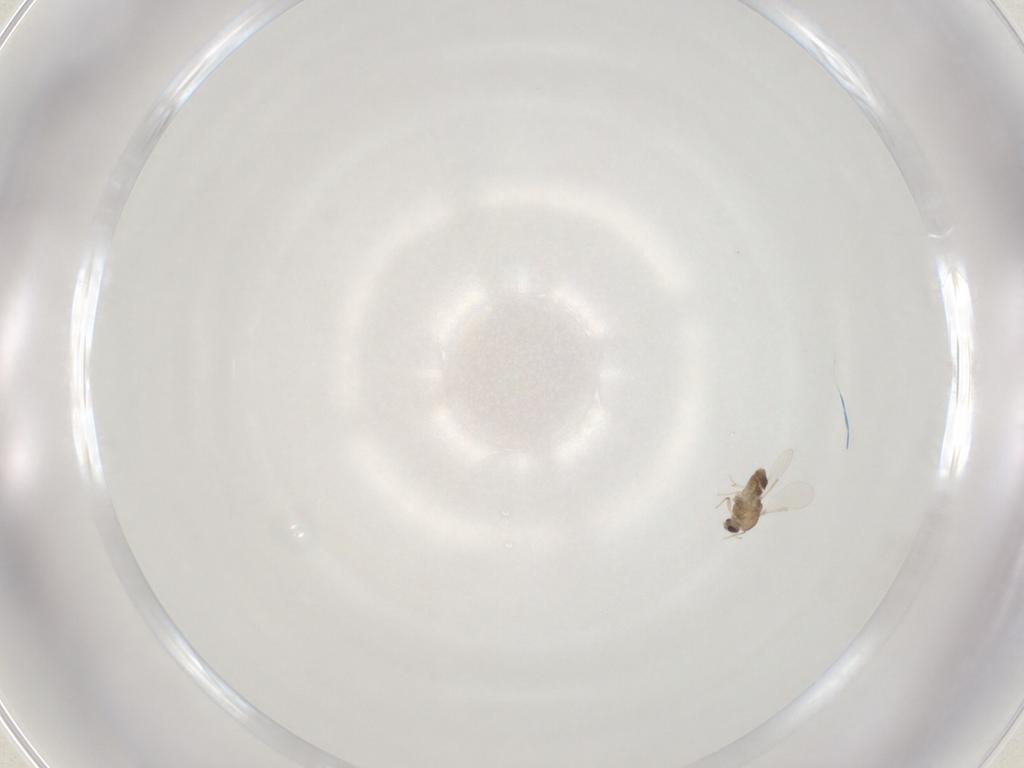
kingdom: Animalia
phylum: Arthropoda
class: Insecta
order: Diptera
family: Chironomidae
